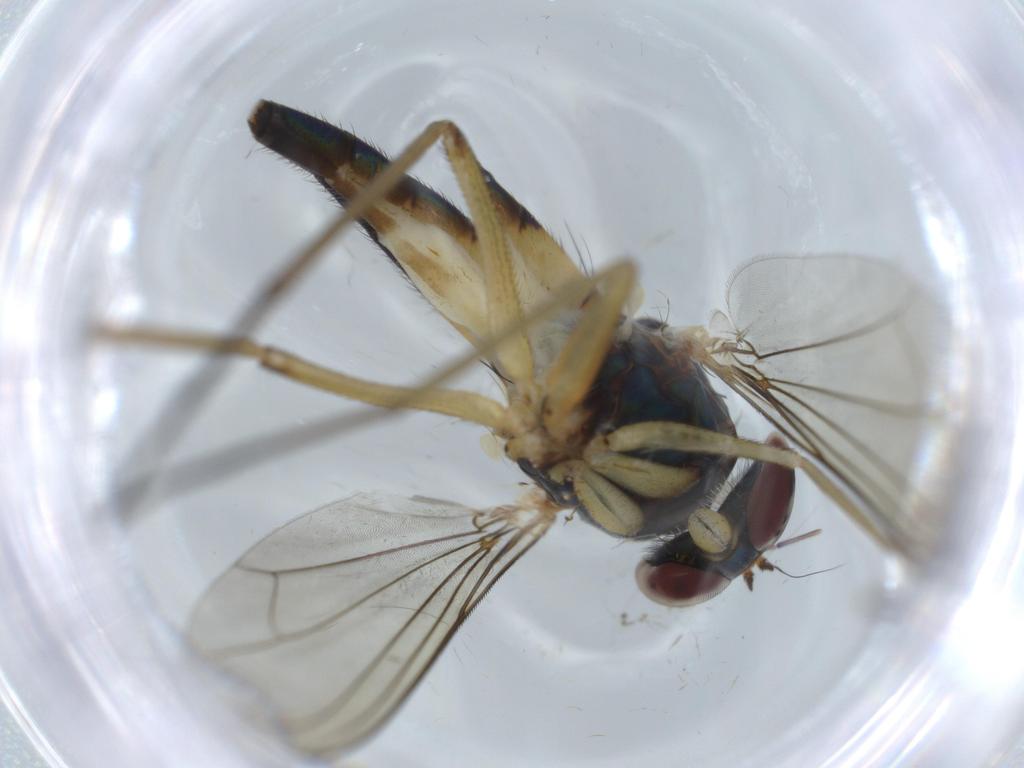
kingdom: Animalia
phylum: Arthropoda
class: Insecta
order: Diptera
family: Dolichopodidae
